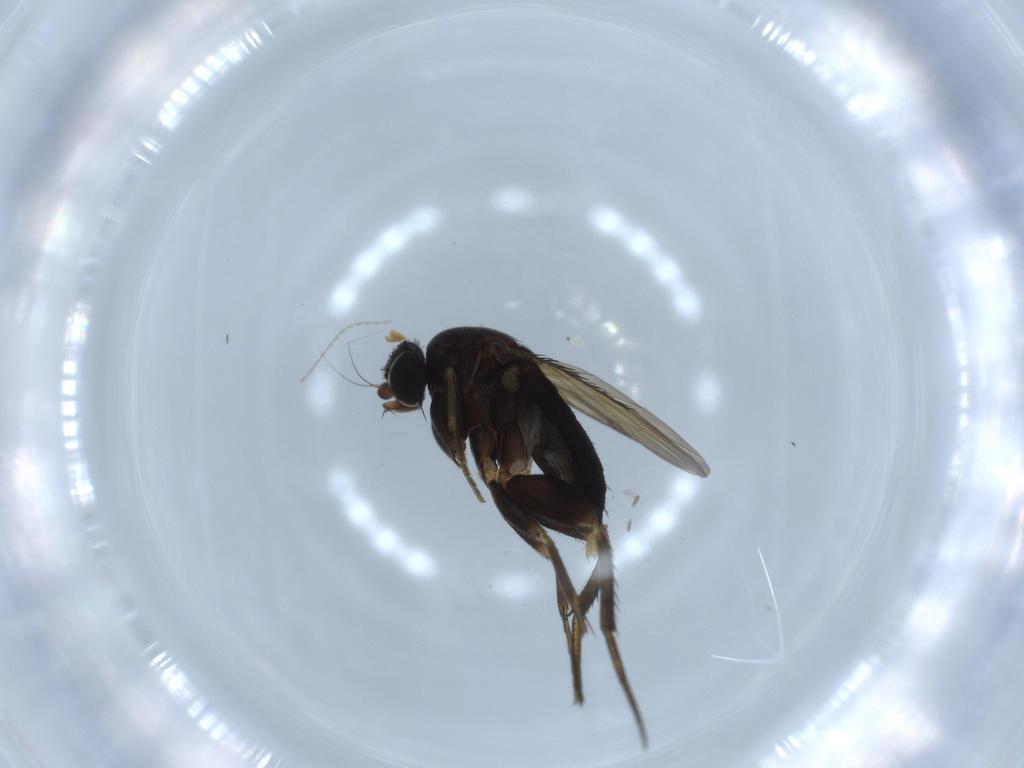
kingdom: Animalia
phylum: Arthropoda
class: Insecta
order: Diptera
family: Phoridae
